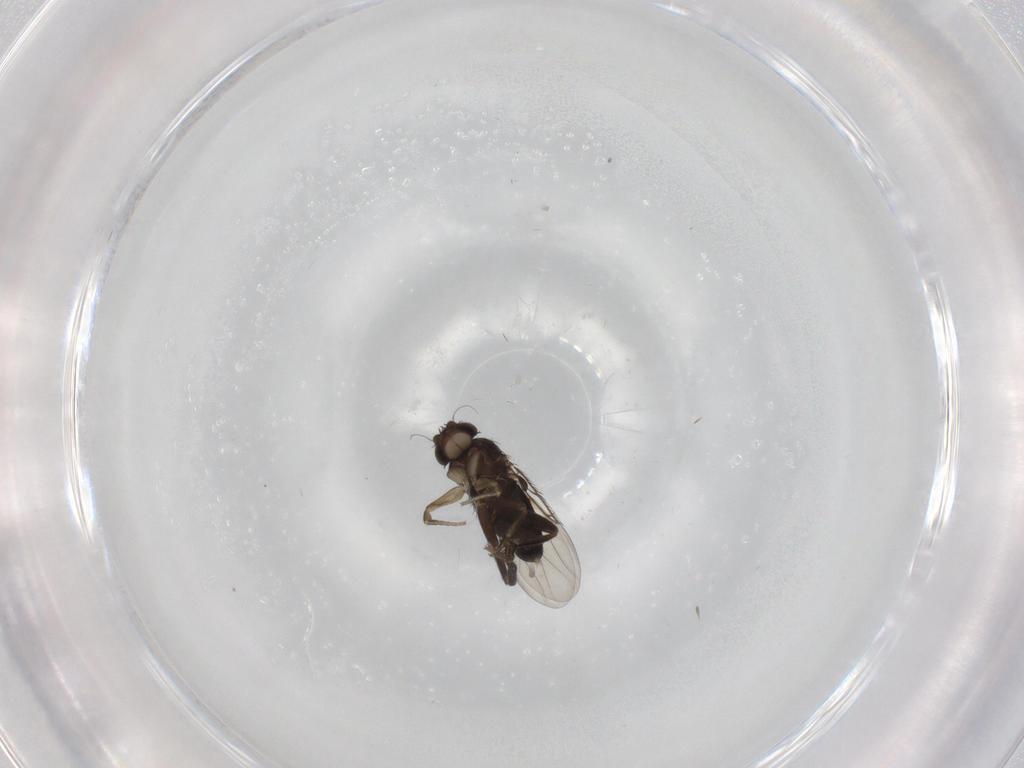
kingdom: Animalia
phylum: Arthropoda
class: Insecta
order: Diptera
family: Phoridae
